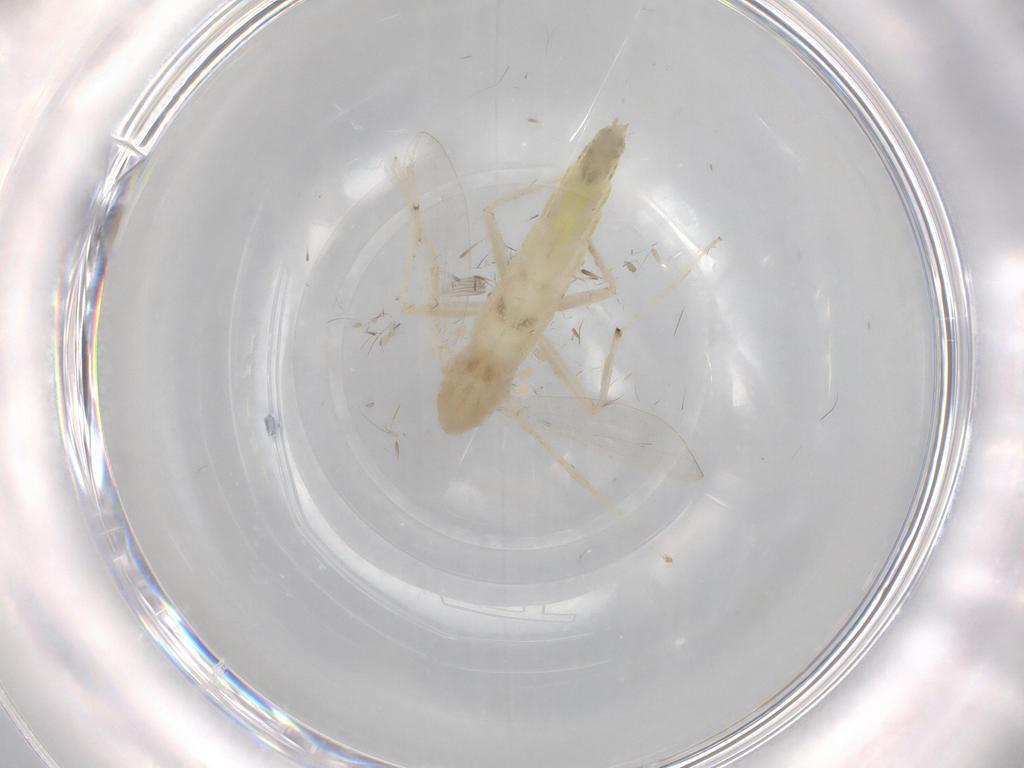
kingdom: Animalia
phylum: Arthropoda
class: Insecta
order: Diptera
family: Chironomidae
